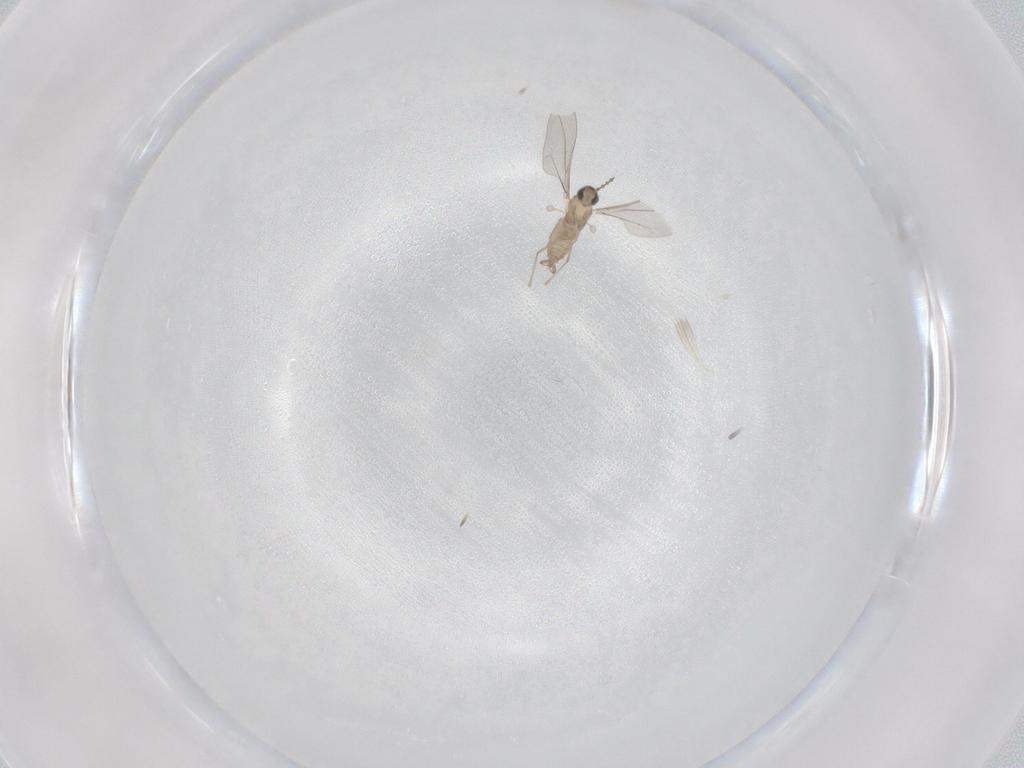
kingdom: Animalia
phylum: Arthropoda
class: Insecta
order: Diptera
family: Cecidomyiidae
